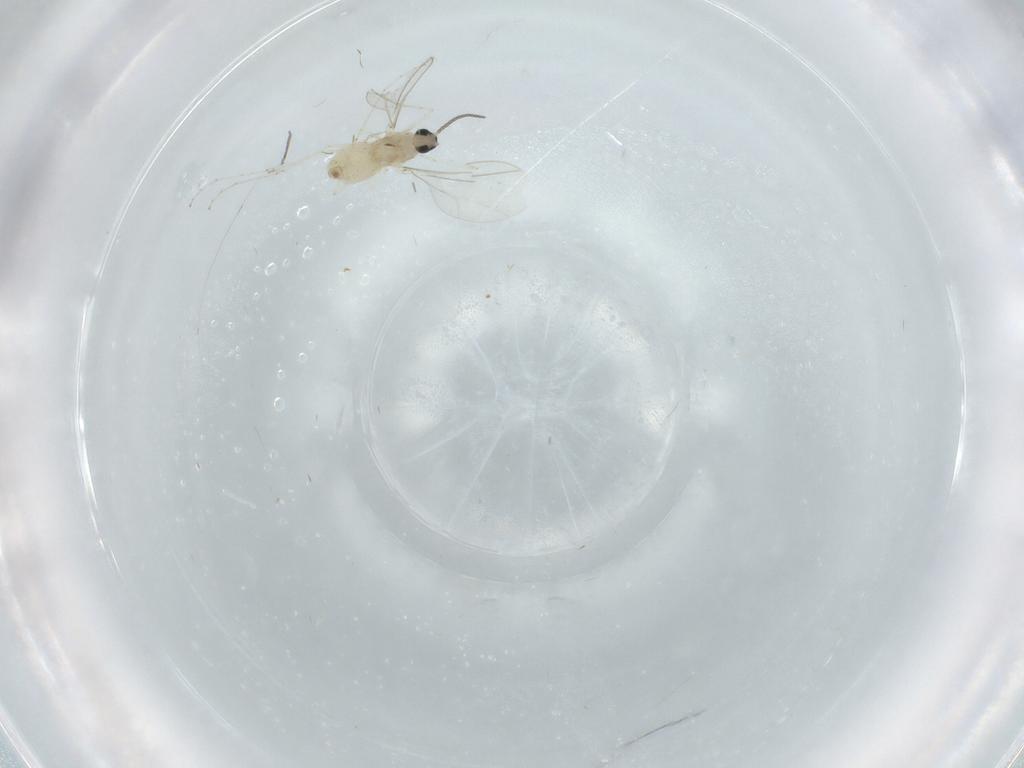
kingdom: Animalia
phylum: Arthropoda
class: Insecta
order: Diptera
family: Cecidomyiidae
